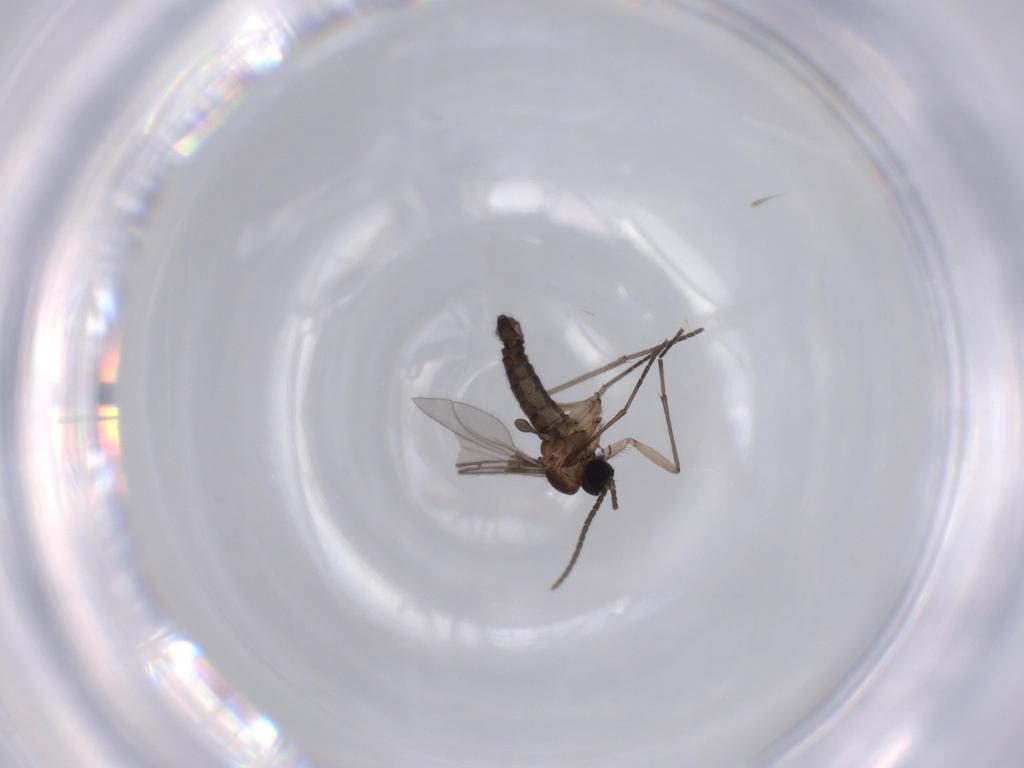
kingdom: Animalia
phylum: Arthropoda
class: Insecta
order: Diptera
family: Sciaridae
